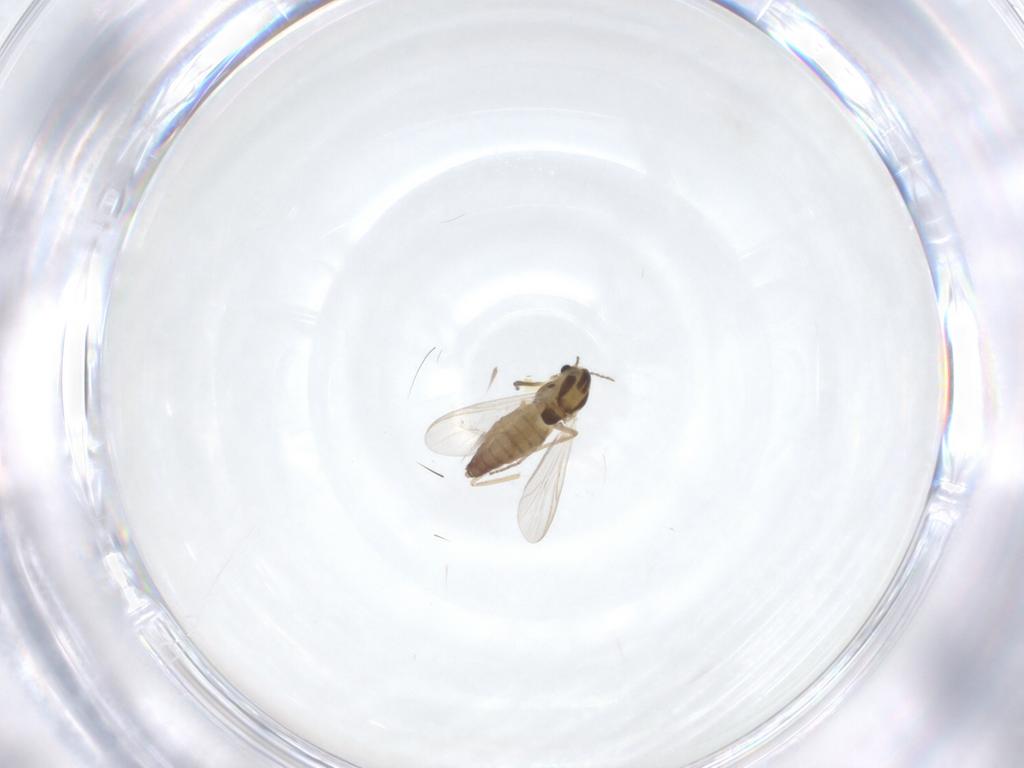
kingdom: Animalia
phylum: Arthropoda
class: Insecta
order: Diptera
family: Cecidomyiidae
